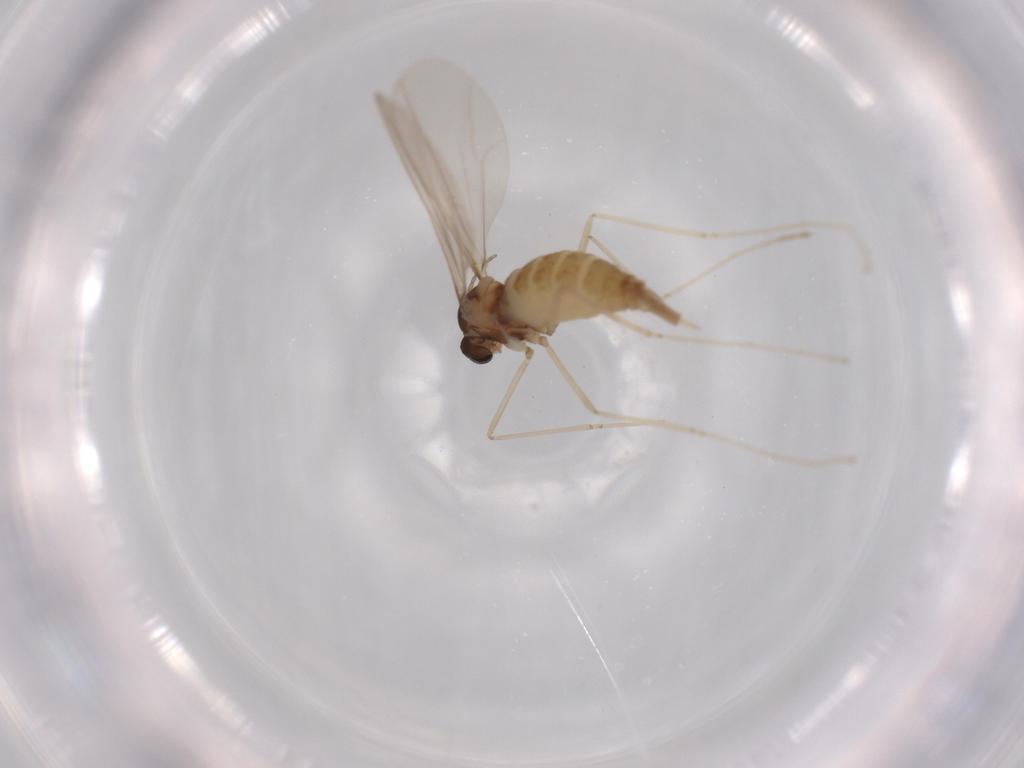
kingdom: Animalia
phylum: Arthropoda
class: Insecta
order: Diptera
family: Cecidomyiidae
